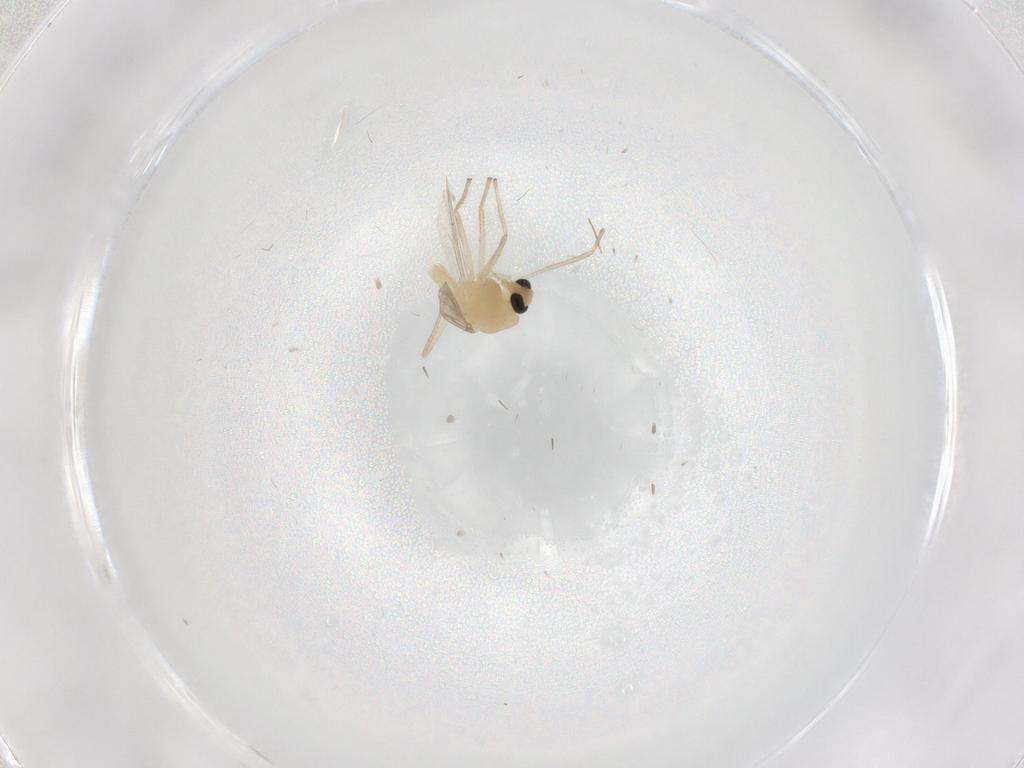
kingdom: Animalia
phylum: Arthropoda
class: Insecta
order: Diptera
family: Chironomidae
